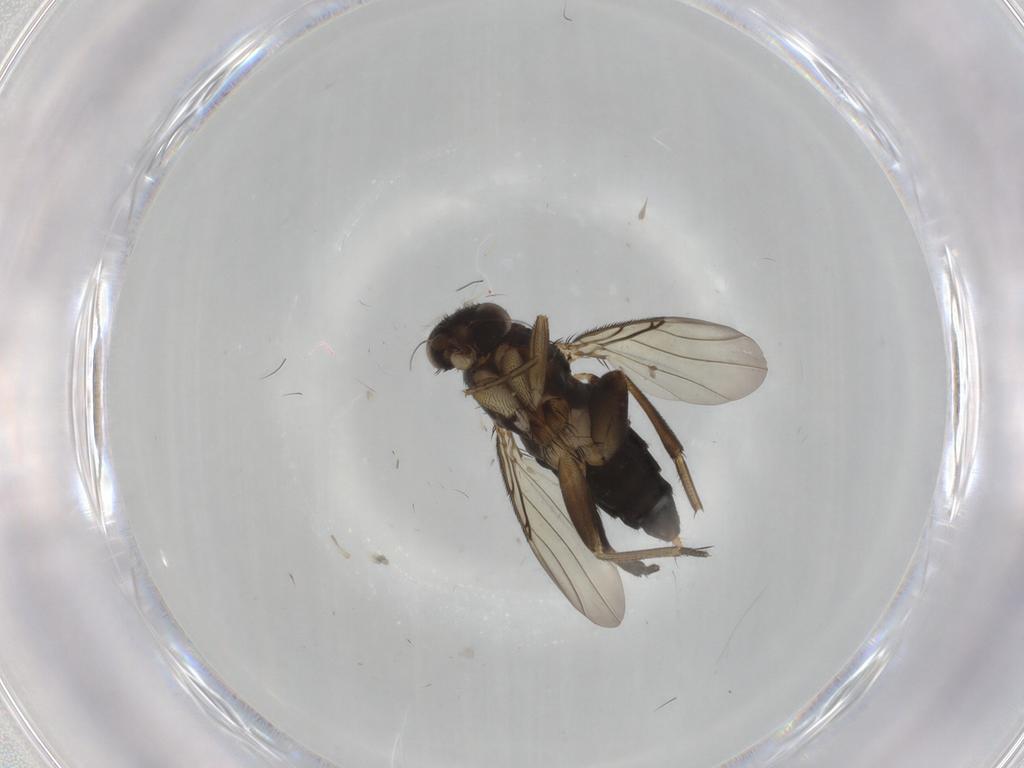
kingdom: Animalia
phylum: Arthropoda
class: Insecta
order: Diptera
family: Phoridae
